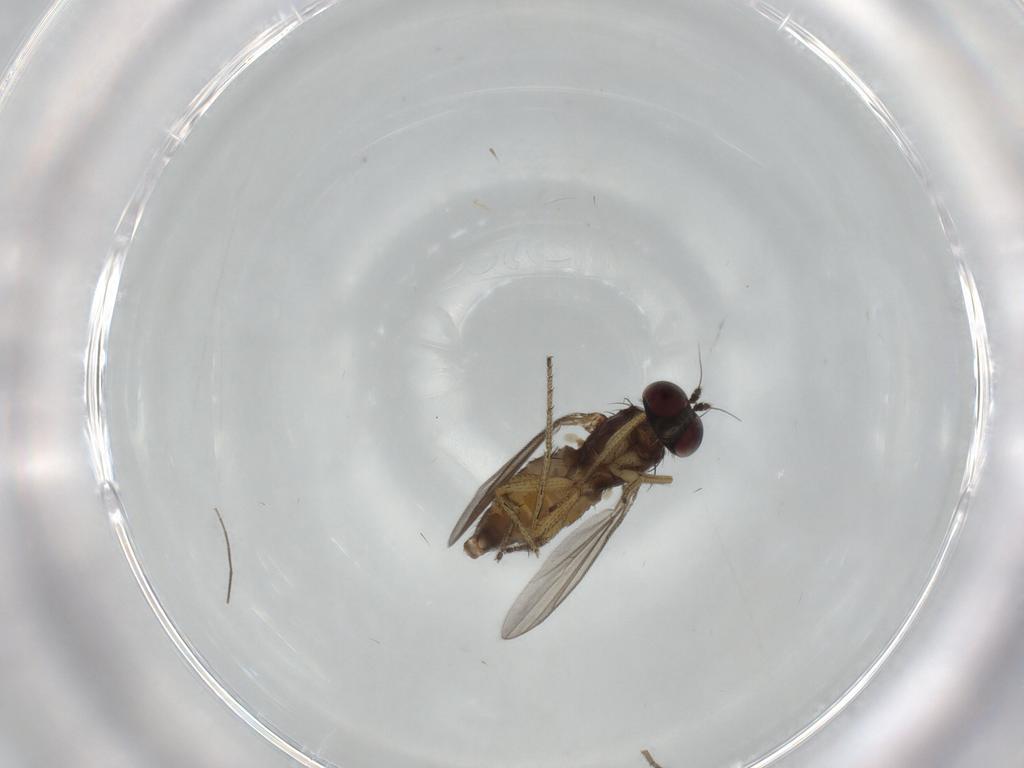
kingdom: Animalia
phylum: Arthropoda
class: Insecta
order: Diptera
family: Dolichopodidae
